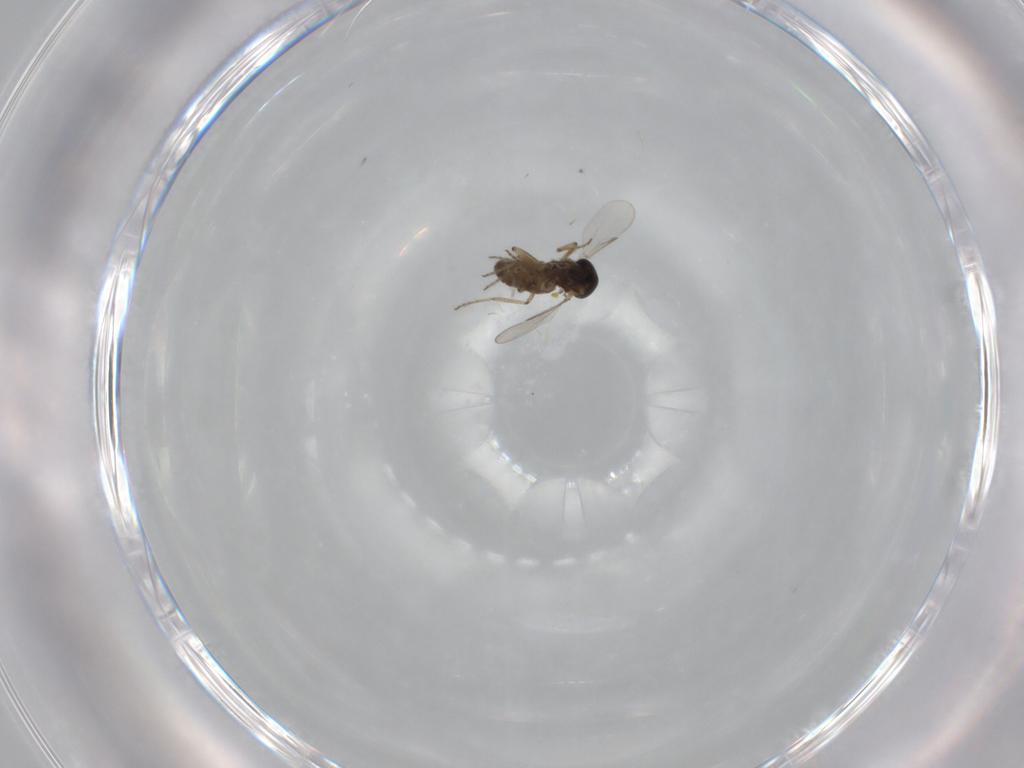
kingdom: Animalia
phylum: Arthropoda
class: Insecta
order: Diptera
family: Ceratopogonidae
